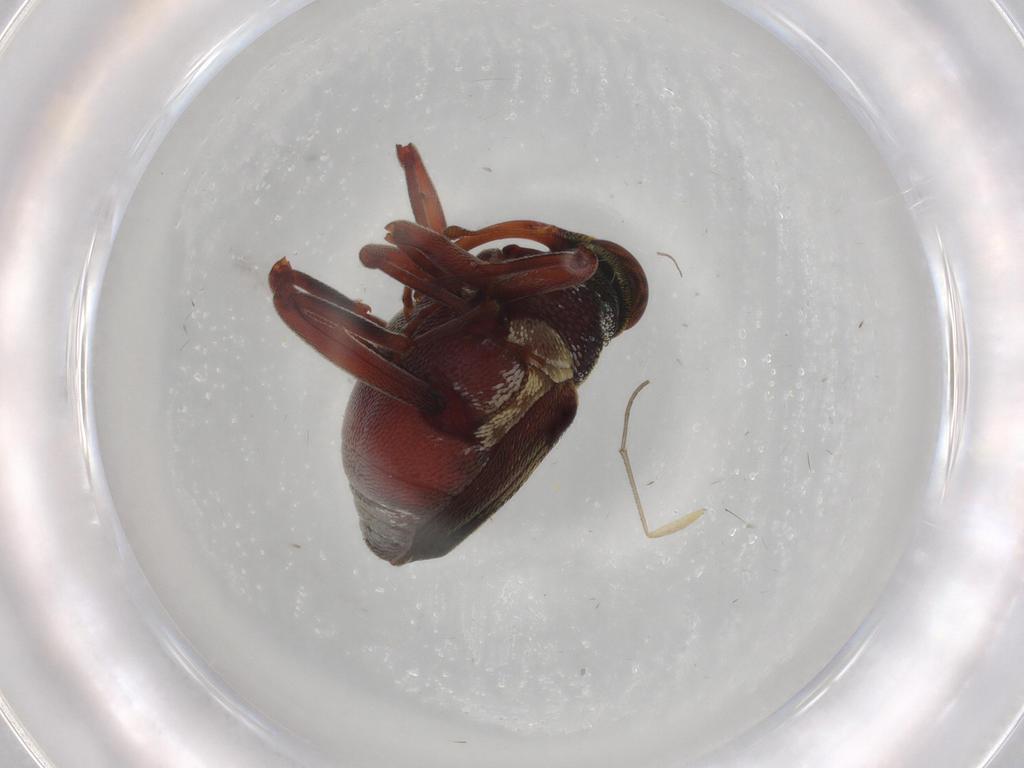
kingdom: Animalia
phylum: Arthropoda
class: Insecta
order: Coleoptera
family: Curculionidae
